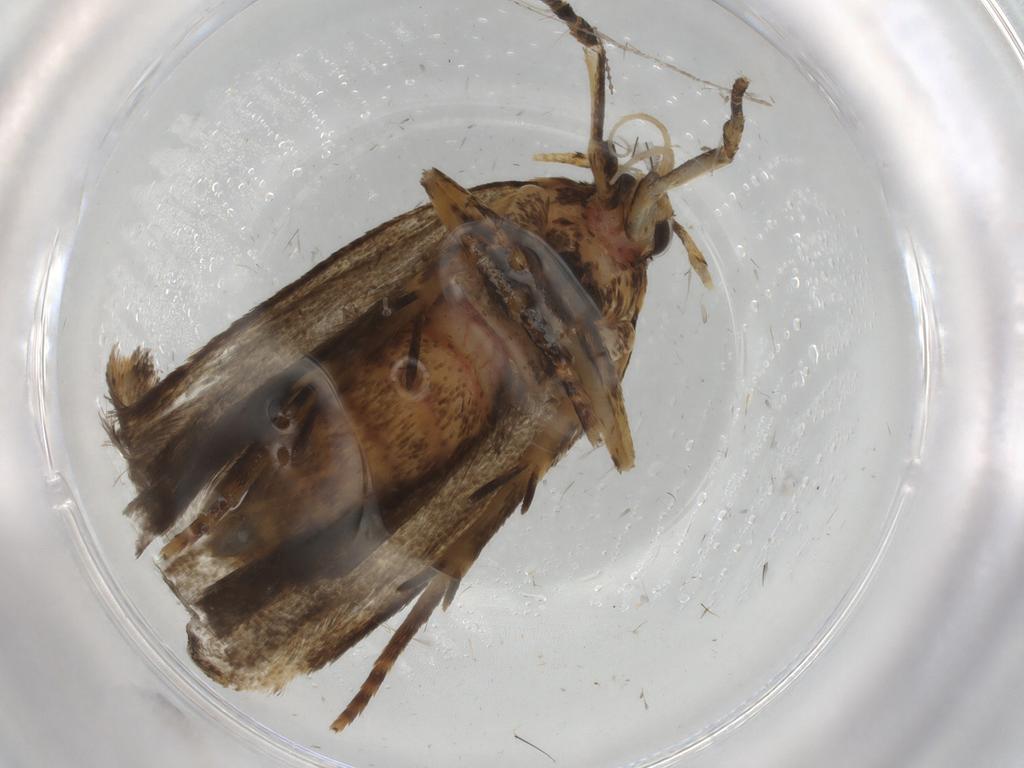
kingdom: Animalia
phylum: Arthropoda
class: Insecta
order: Lepidoptera
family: Autostichidae
